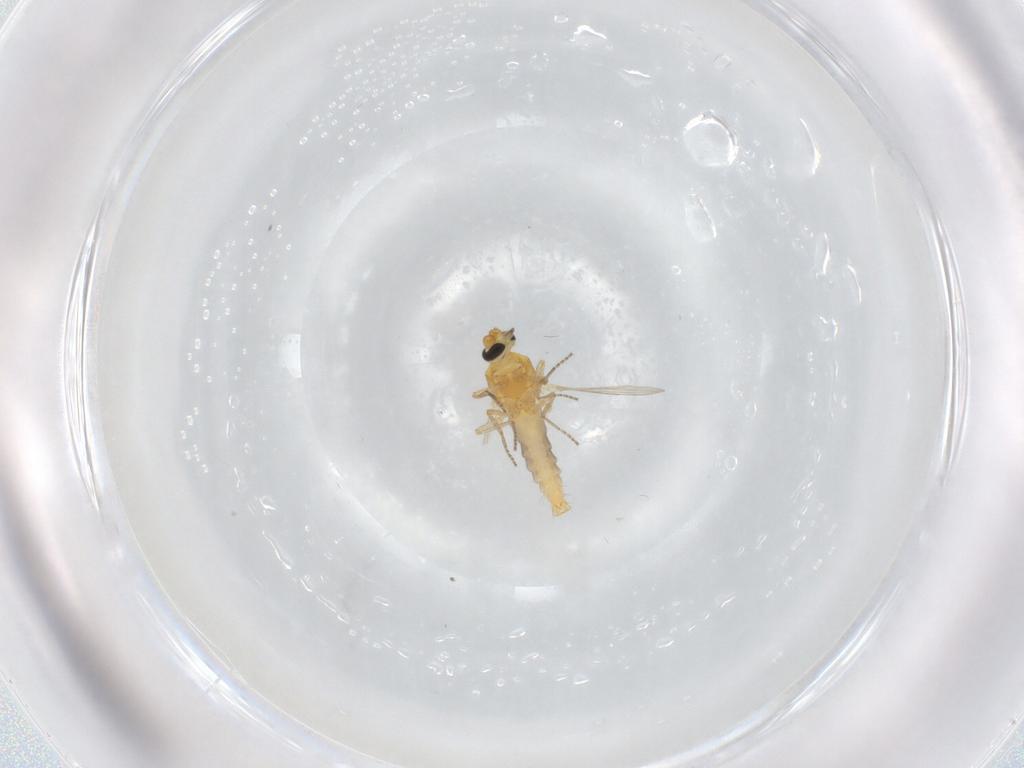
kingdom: Animalia
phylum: Arthropoda
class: Insecta
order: Diptera
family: Ceratopogonidae
